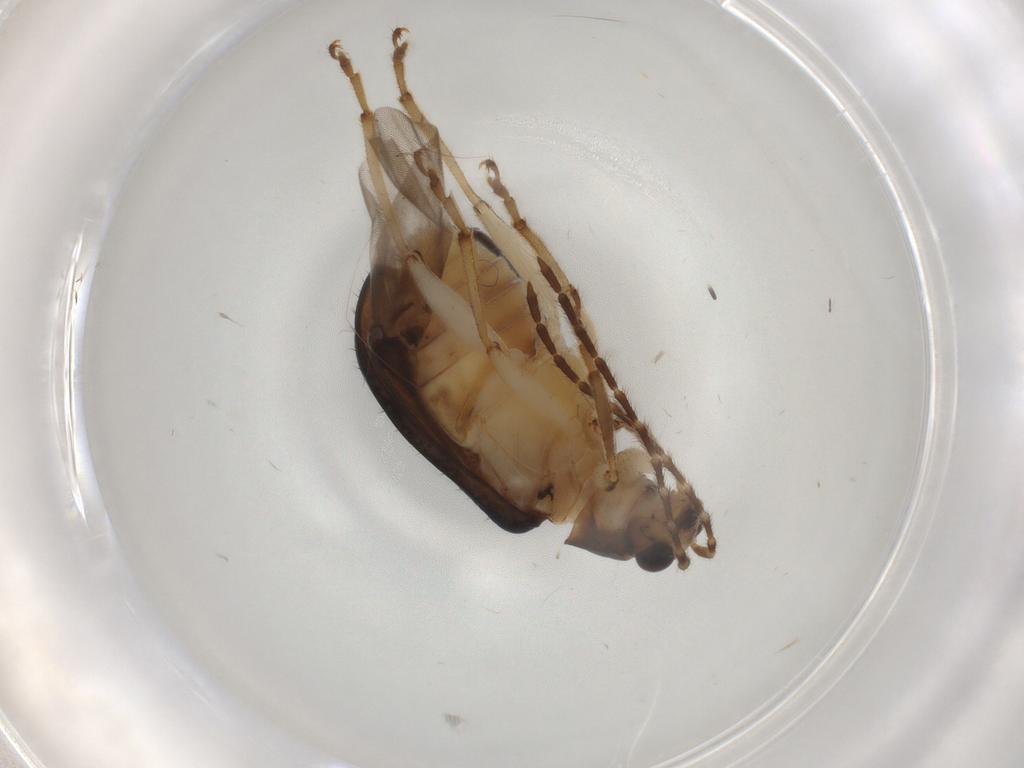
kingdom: Animalia
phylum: Arthropoda
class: Insecta
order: Coleoptera
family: Chrysomelidae
